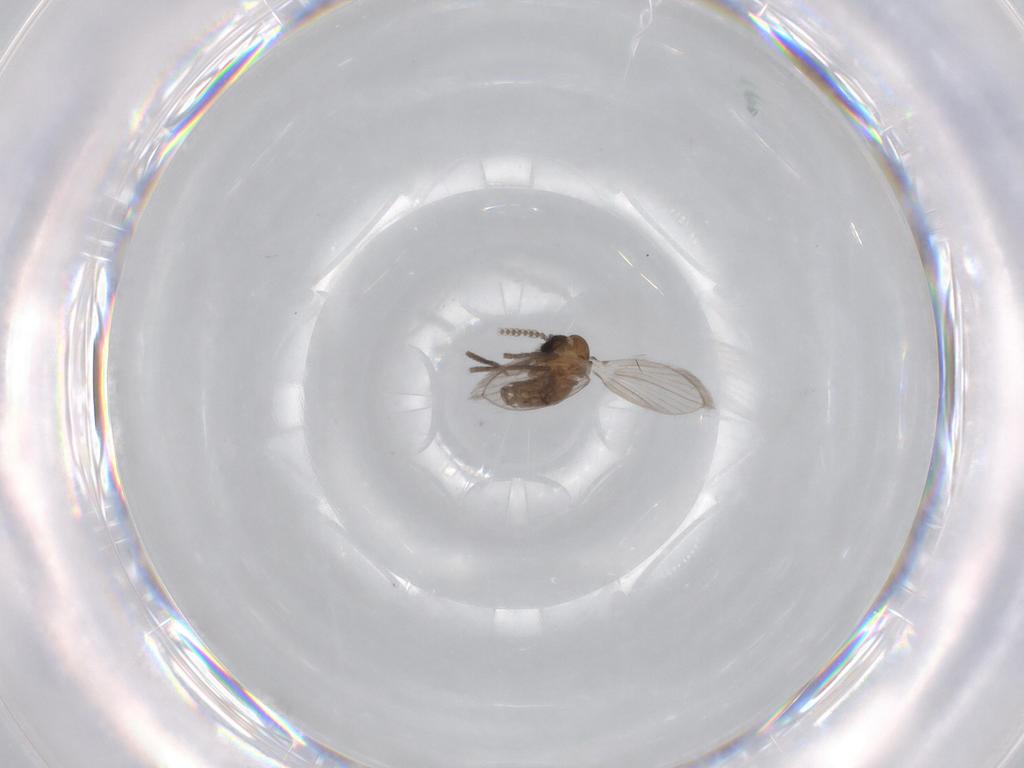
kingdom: Animalia
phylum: Arthropoda
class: Insecta
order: Diptera
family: Psychodidae
